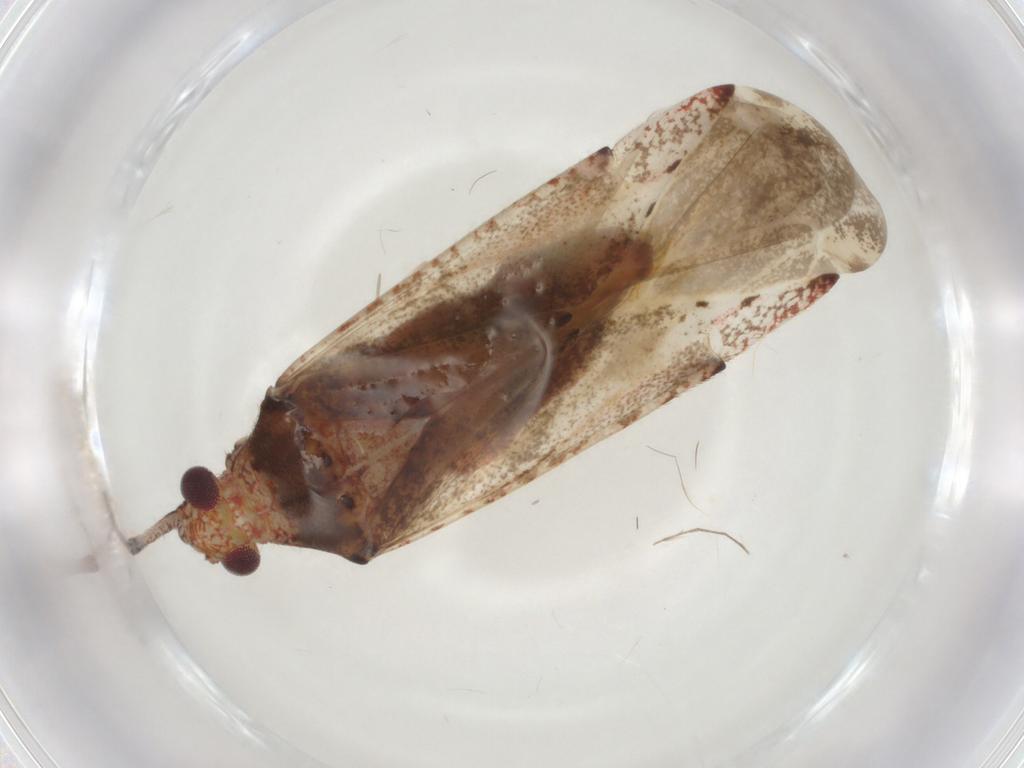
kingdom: Animalia
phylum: Arthropoda
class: Insecta
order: Hemiptera
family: Miridae
